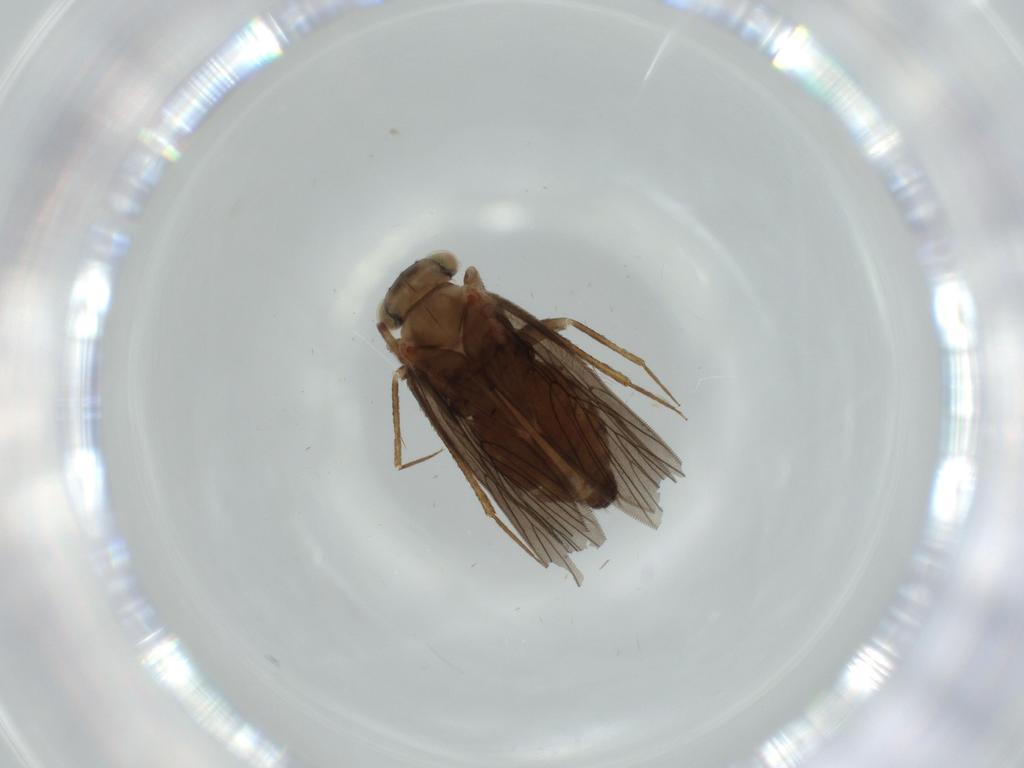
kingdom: Animalia
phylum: Arthropoda
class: Insecta
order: Psocodea
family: Lepidopsocidae
